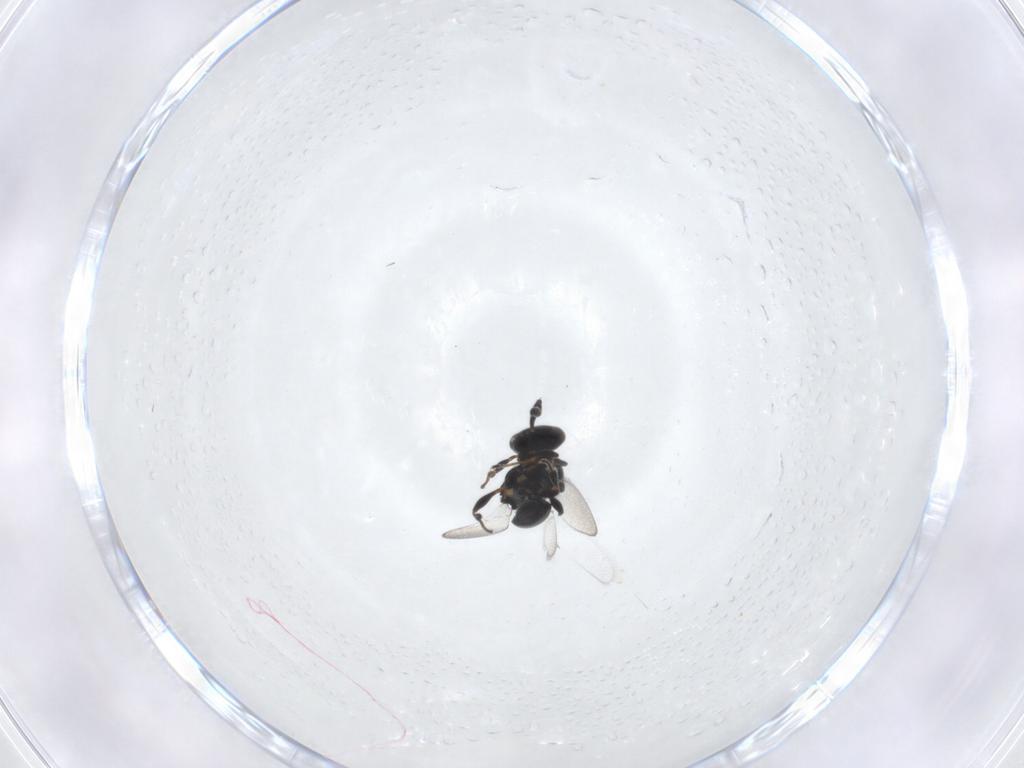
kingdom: Animalia
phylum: Arthropoda
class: Insecta
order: Hymenoptera
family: Platygastridae
